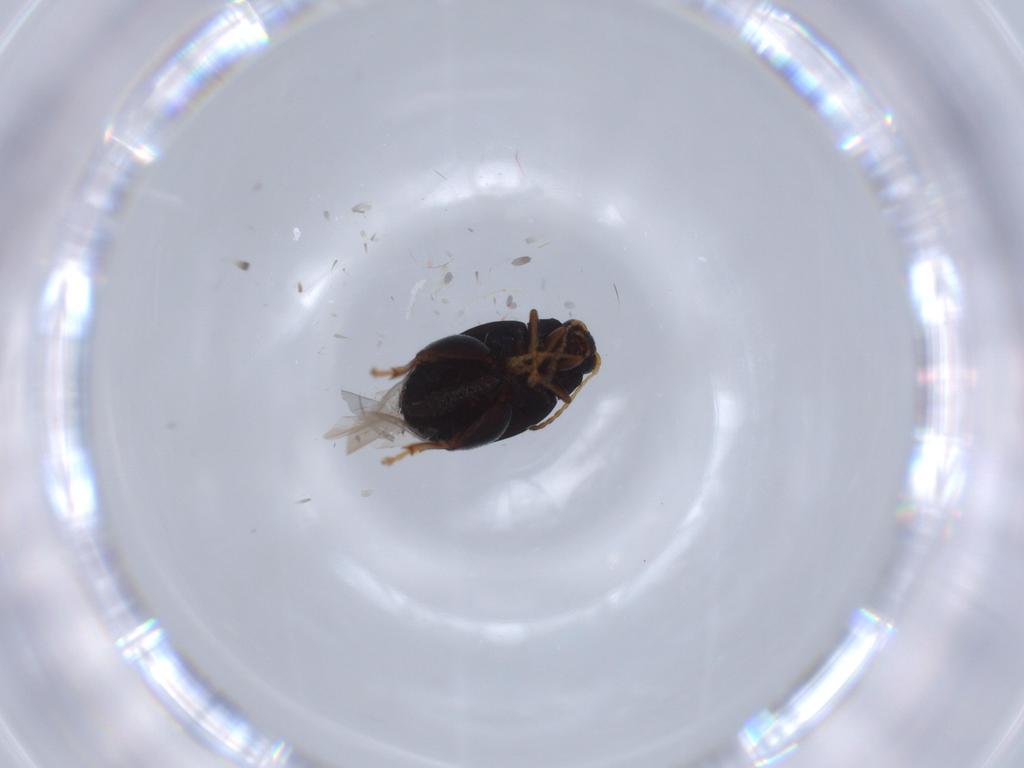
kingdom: Animalia
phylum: Arthropoda
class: Insecta
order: Coleoptera
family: Chrysomelidae
